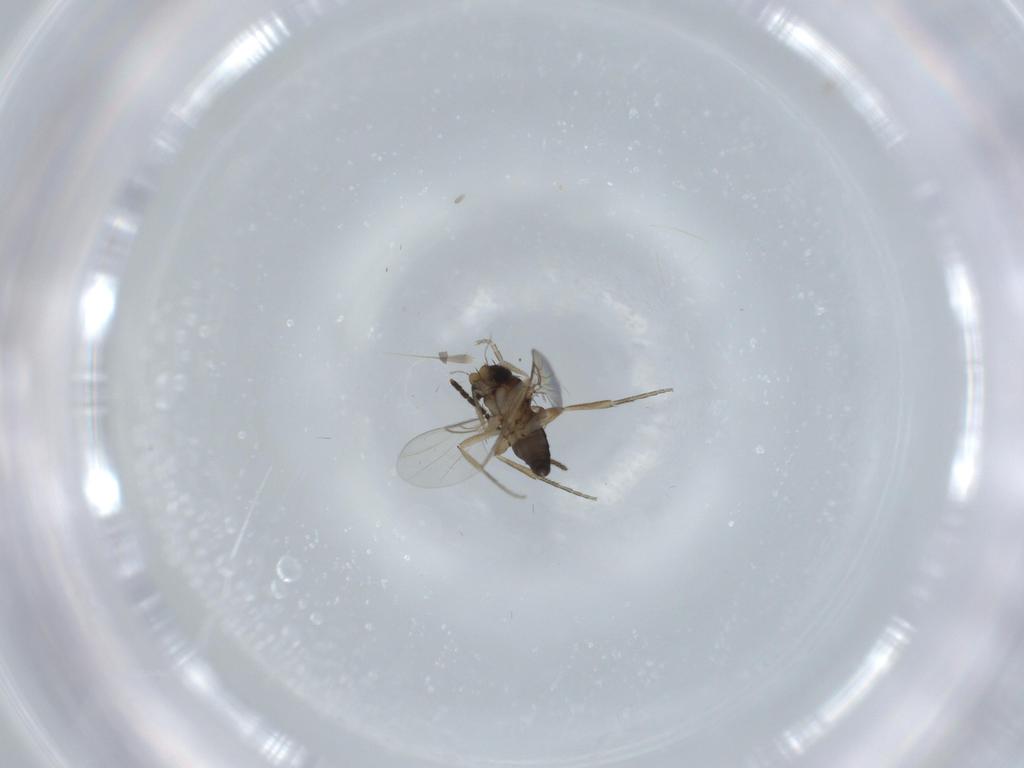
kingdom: Animalia
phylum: Arthropoda
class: Insecta
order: Diptera
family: Phoridae
